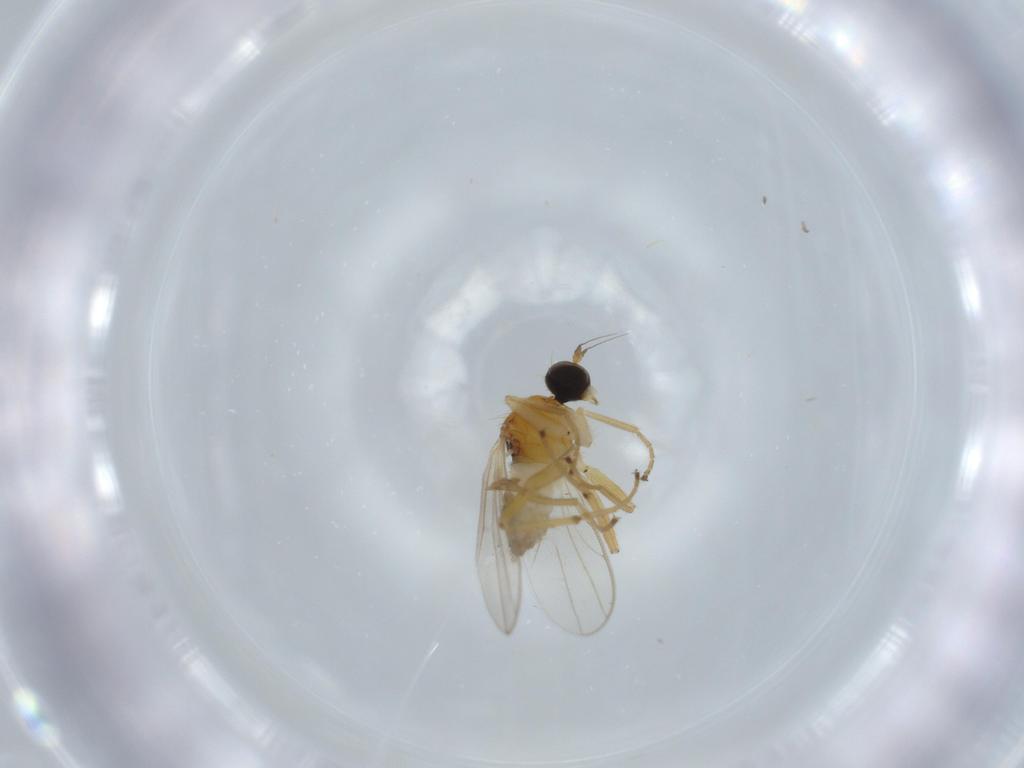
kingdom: Animalia
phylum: Arthropoda
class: Insecta
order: Diptera
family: Hybotidae
